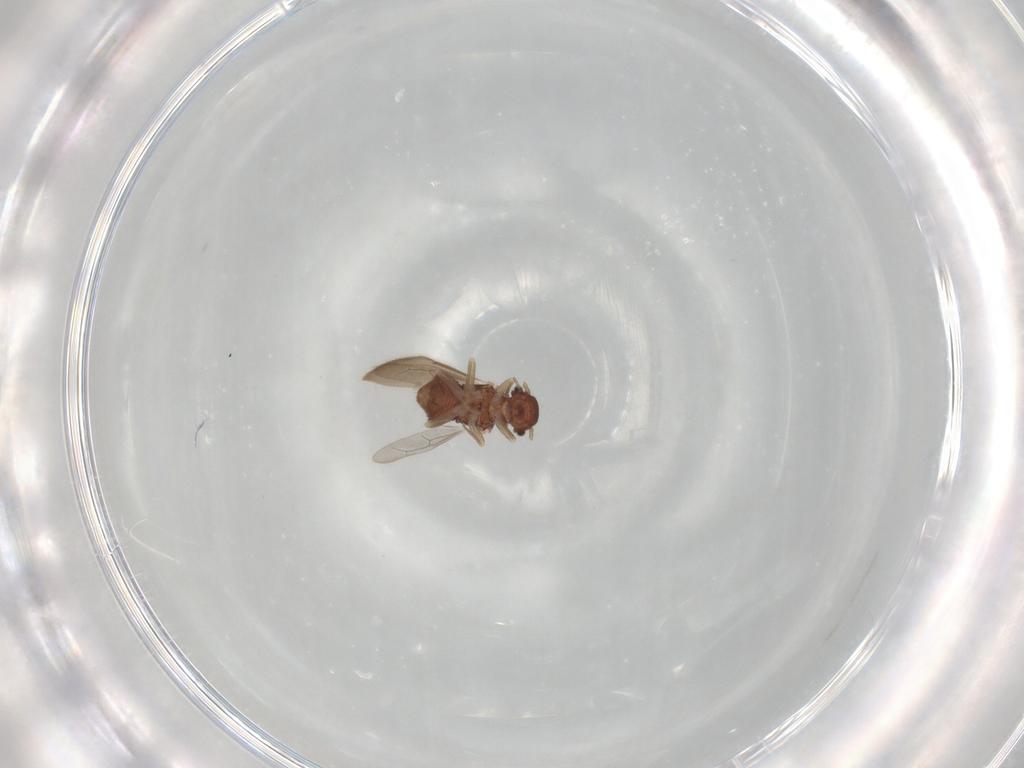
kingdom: Animalia
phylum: Arthropoda
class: Insecta
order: Psocodea
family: Archipsocidae
